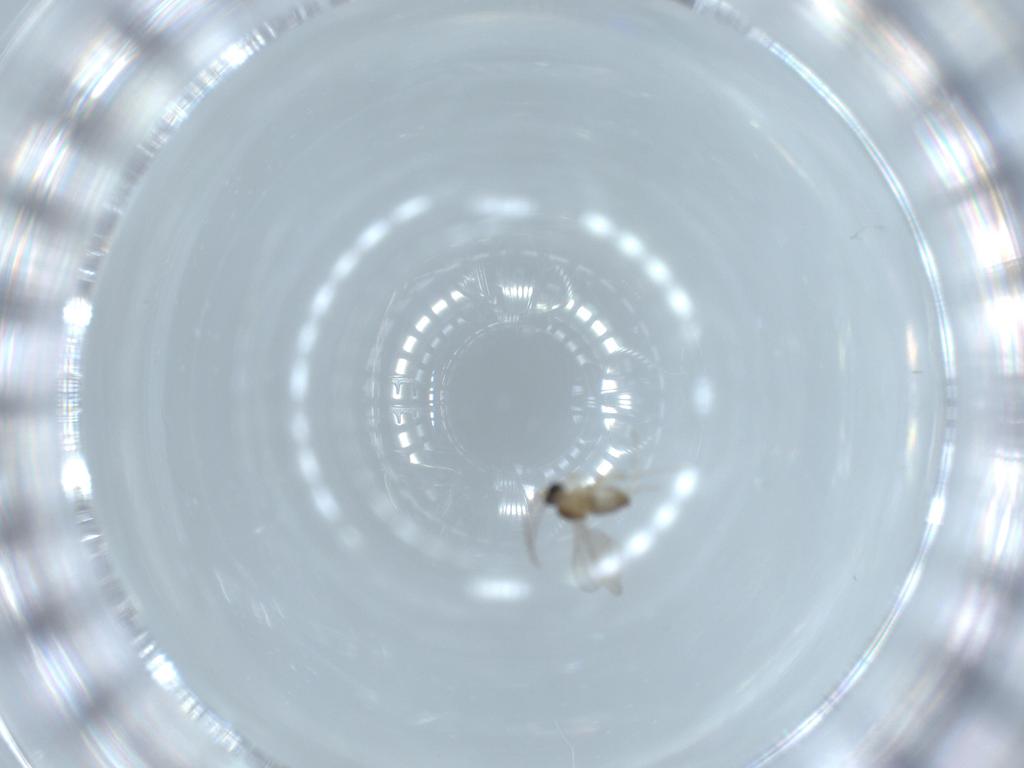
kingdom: Animalia
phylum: Arthropoda
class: Insecta
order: Diptera
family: Cecidomyiidae
